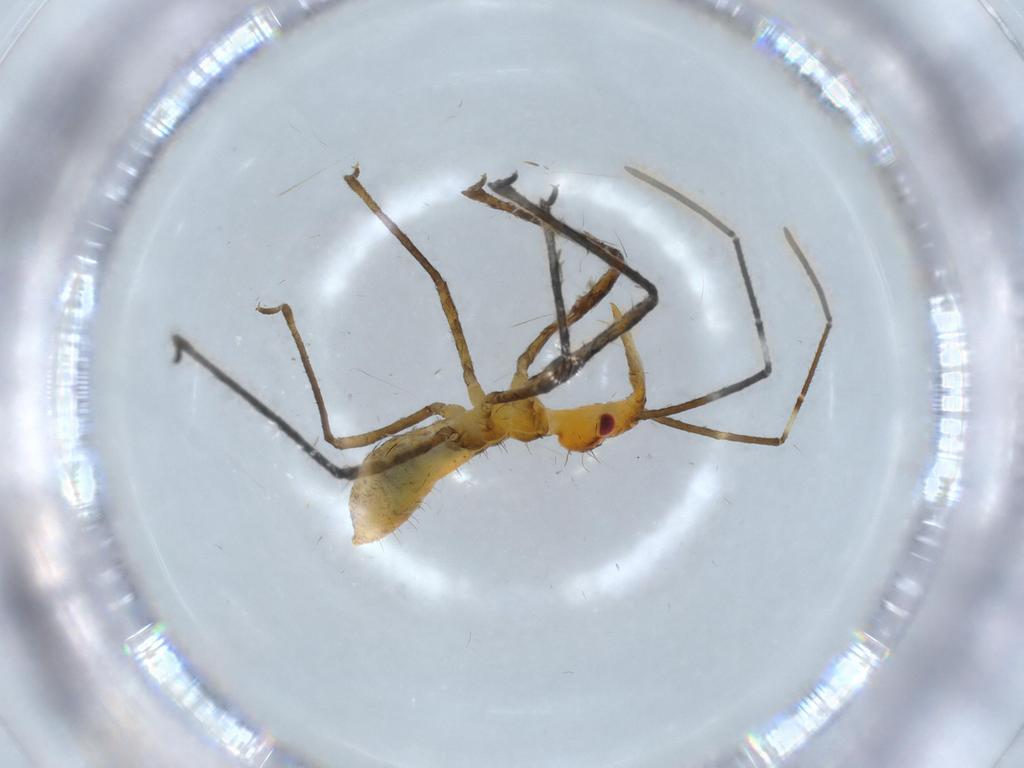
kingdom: Animalia
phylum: Arthropoda
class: Insecta
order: Hemiptera
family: Reduviidae
